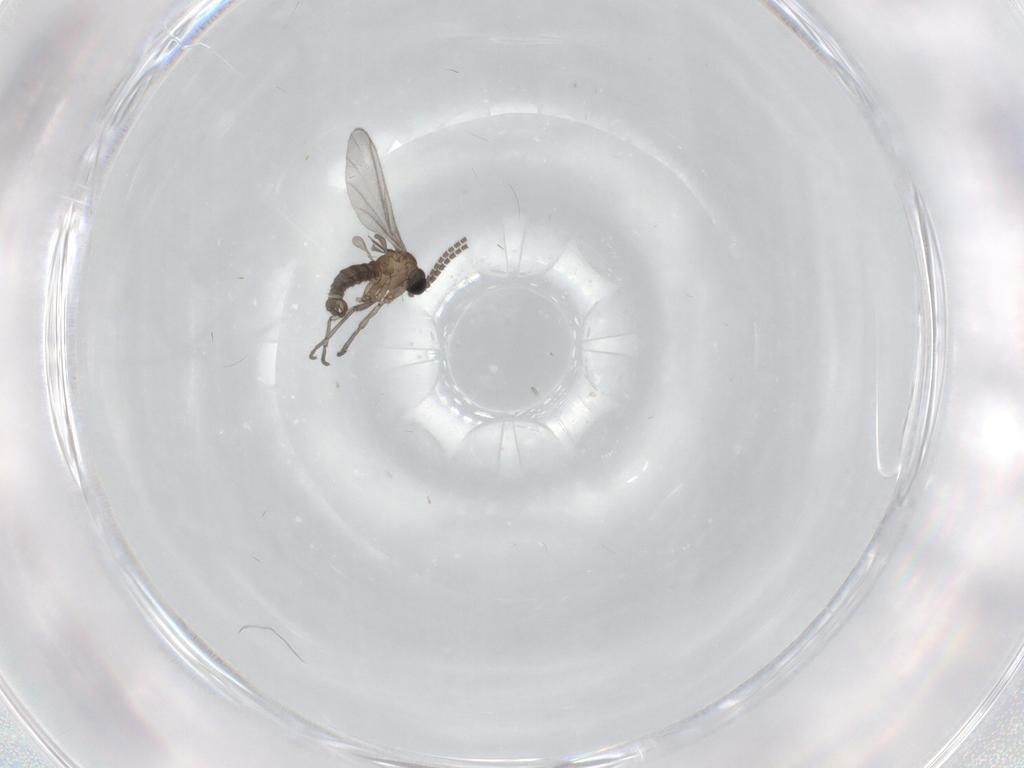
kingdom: Animalia
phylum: Arthropoda
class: Insecta
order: Diptera
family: Sciaridae
